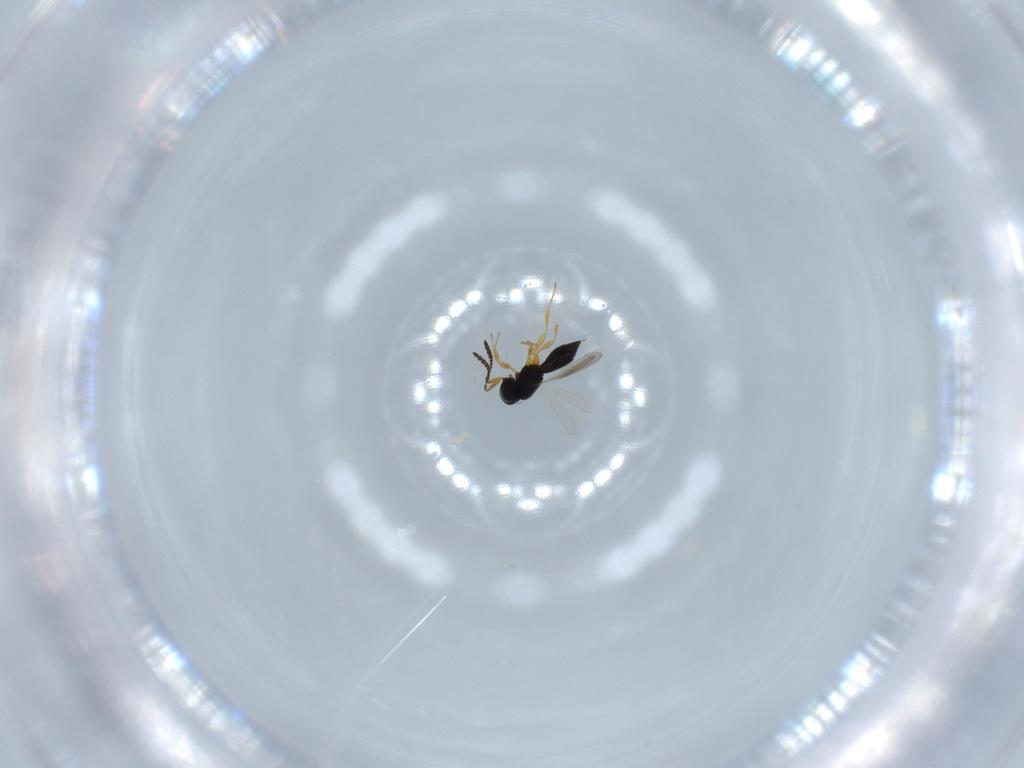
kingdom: Animalia
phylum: Arthropoda
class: Insecta
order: Hymenoptera
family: Scelionidae
